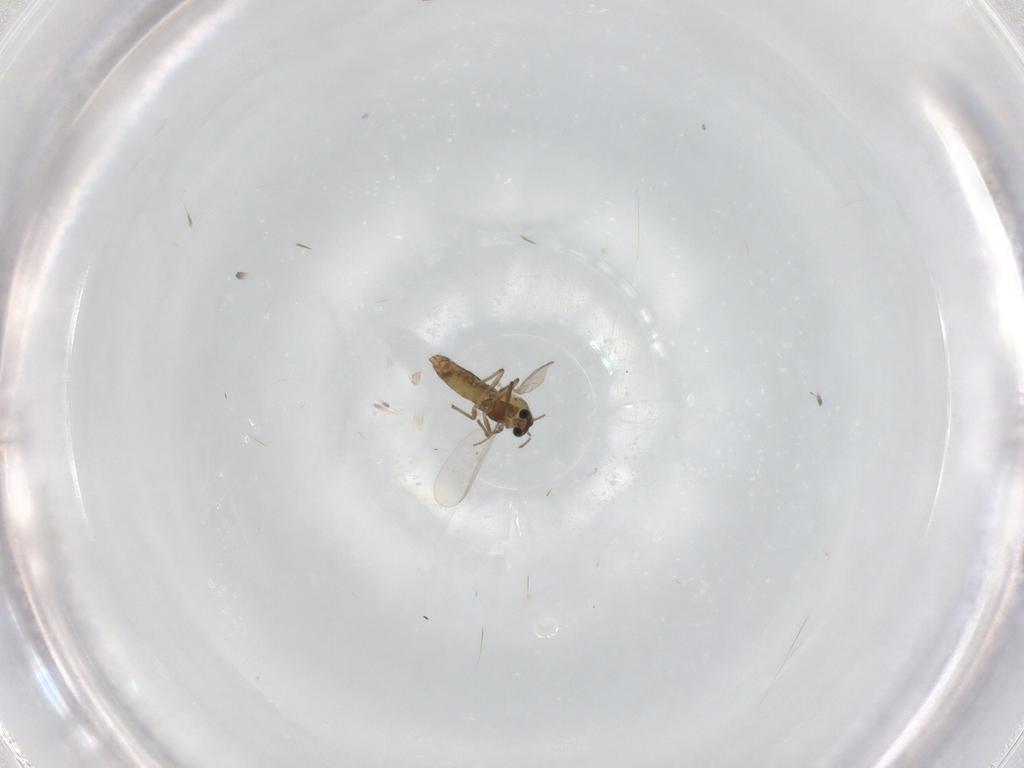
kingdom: Animalia
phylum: Arthropoda
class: Insecta
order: Diptera
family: Chironomidae
